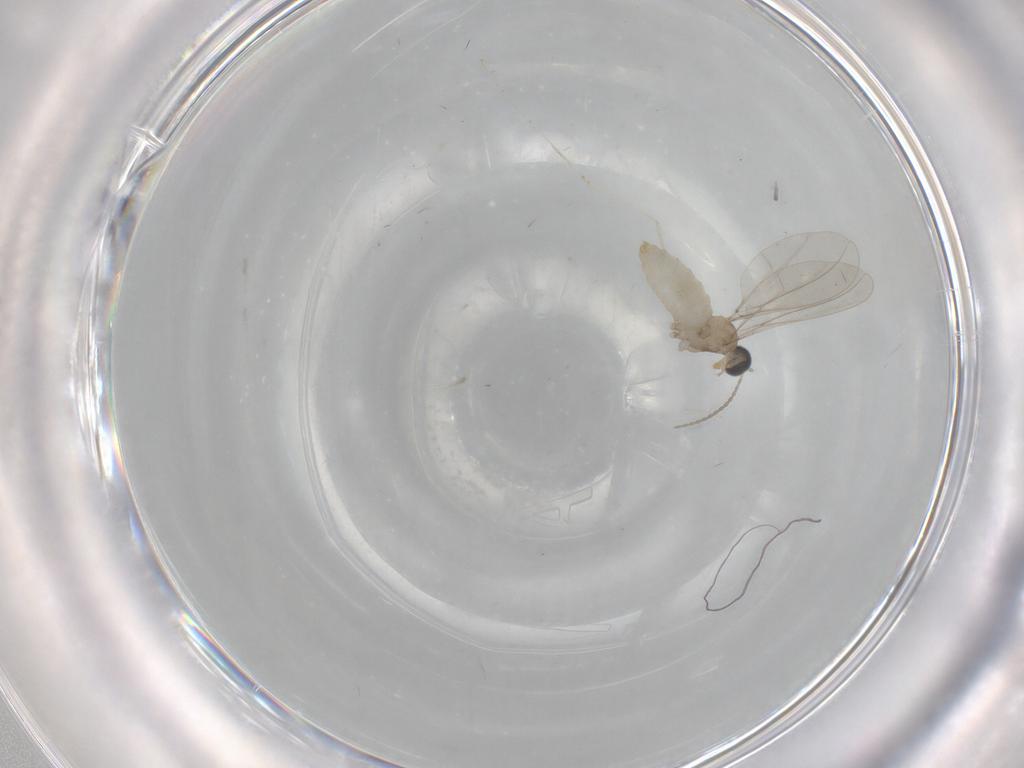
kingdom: Animalia
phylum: Arthropoda
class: Insecta
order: Diptera
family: Cecidomyiidae
